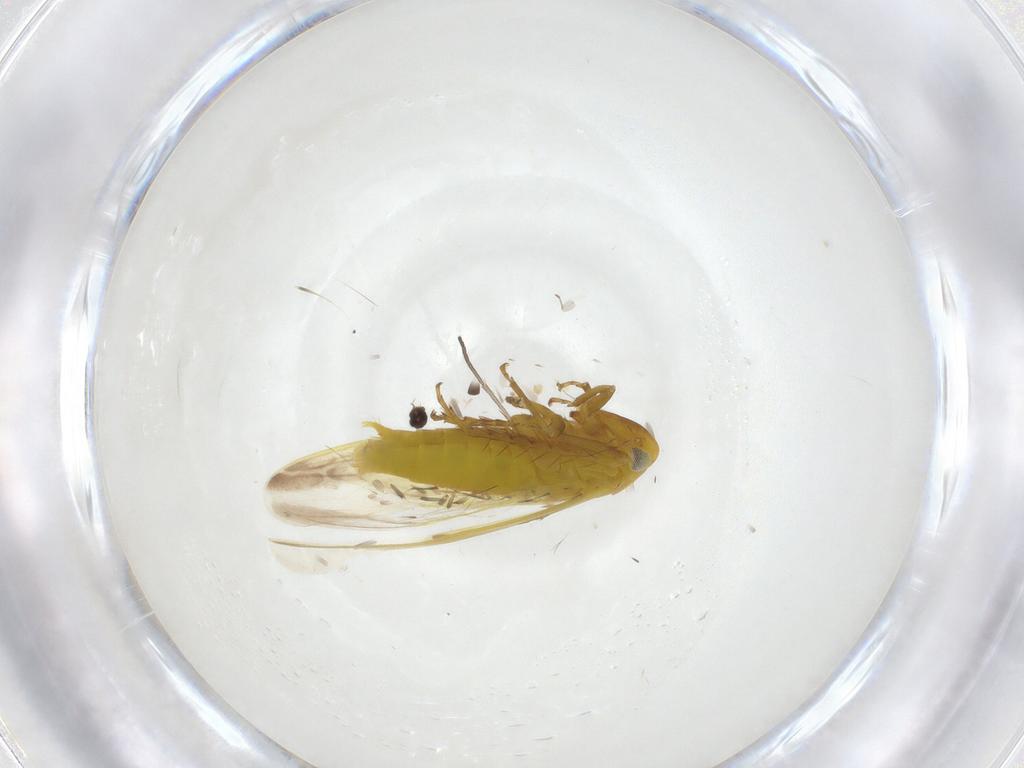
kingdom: Animalia
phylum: Arthropoda
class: Insecta
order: Hemiptera
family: Cicadellidae
